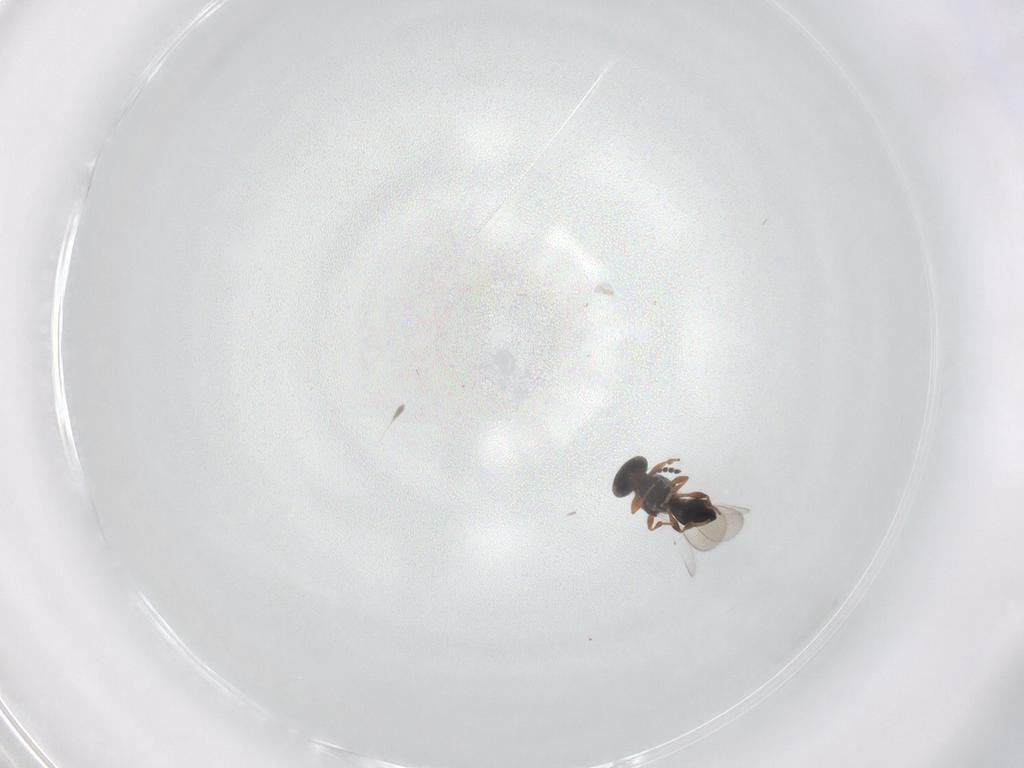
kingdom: Animalia
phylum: Arthropoda
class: Insecta
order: Hymenoptera
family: Platygastridae
